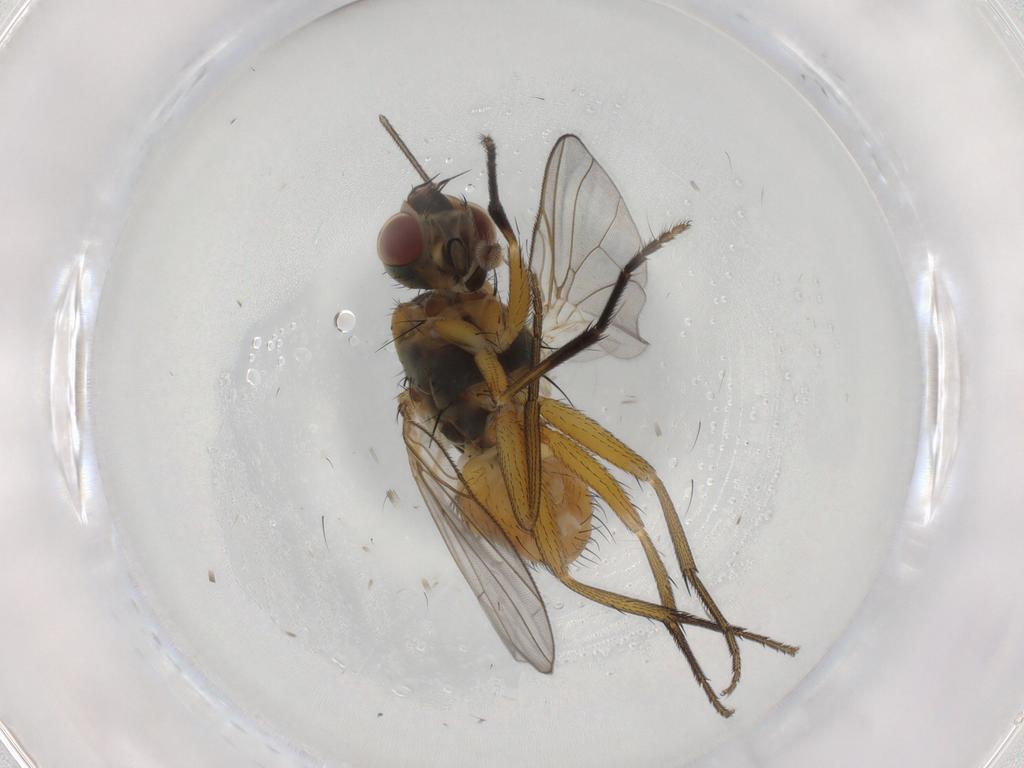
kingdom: Animalia
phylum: Arthropoda
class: Insecta
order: Diptera
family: Muscidae
